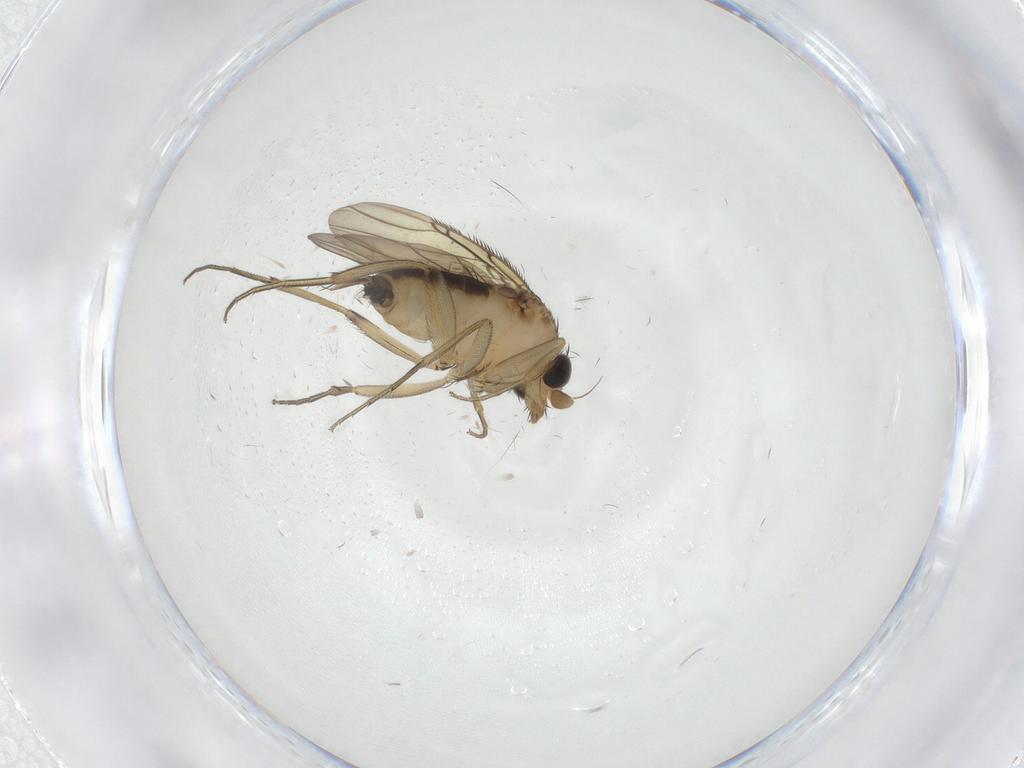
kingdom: Animalia
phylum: Arthropoda
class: Insecta
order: Diptera
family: Phoridae
